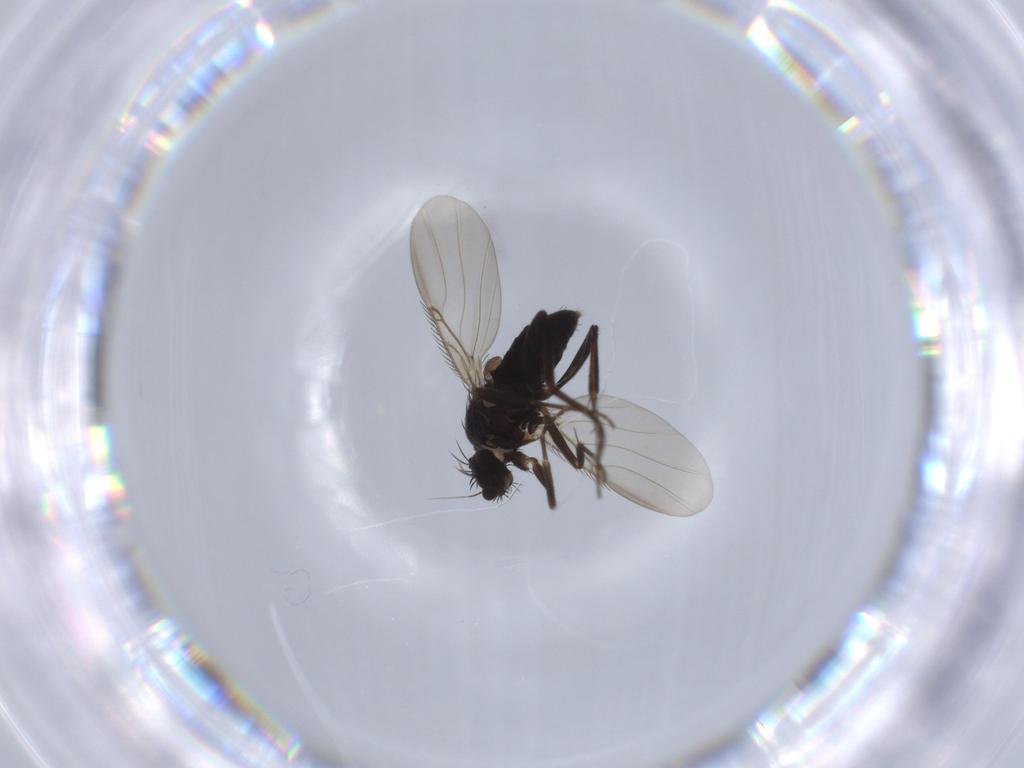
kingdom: Animalia
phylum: Arthropoda
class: Insecta
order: Diptera
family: Phoridae
